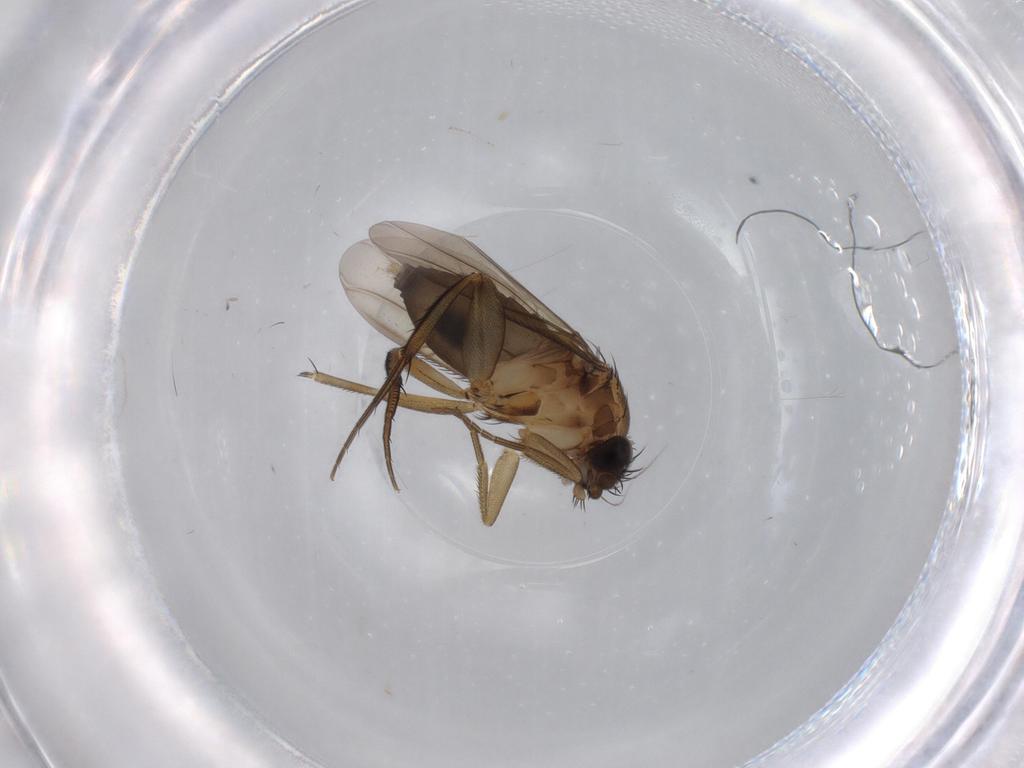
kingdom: Animalia
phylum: Arthropoda
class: Insecta
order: Diptera
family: Phoridae
